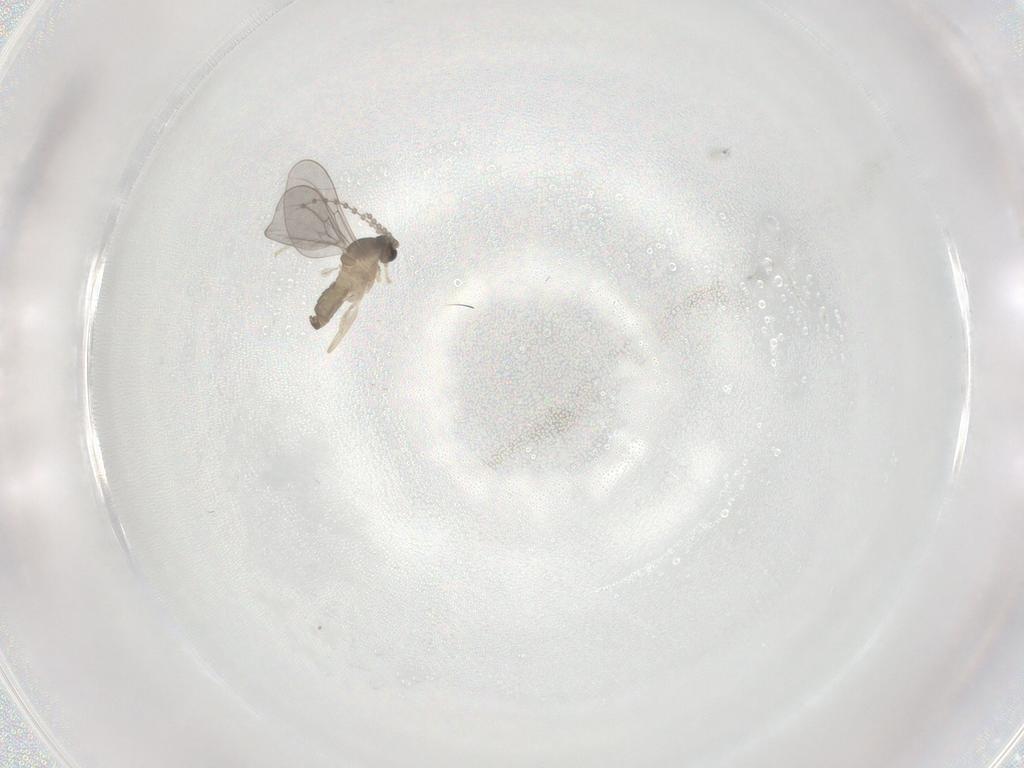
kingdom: Animalia
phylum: Arthropoda
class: Insecta
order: Diptera
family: Cecidomyiidae
